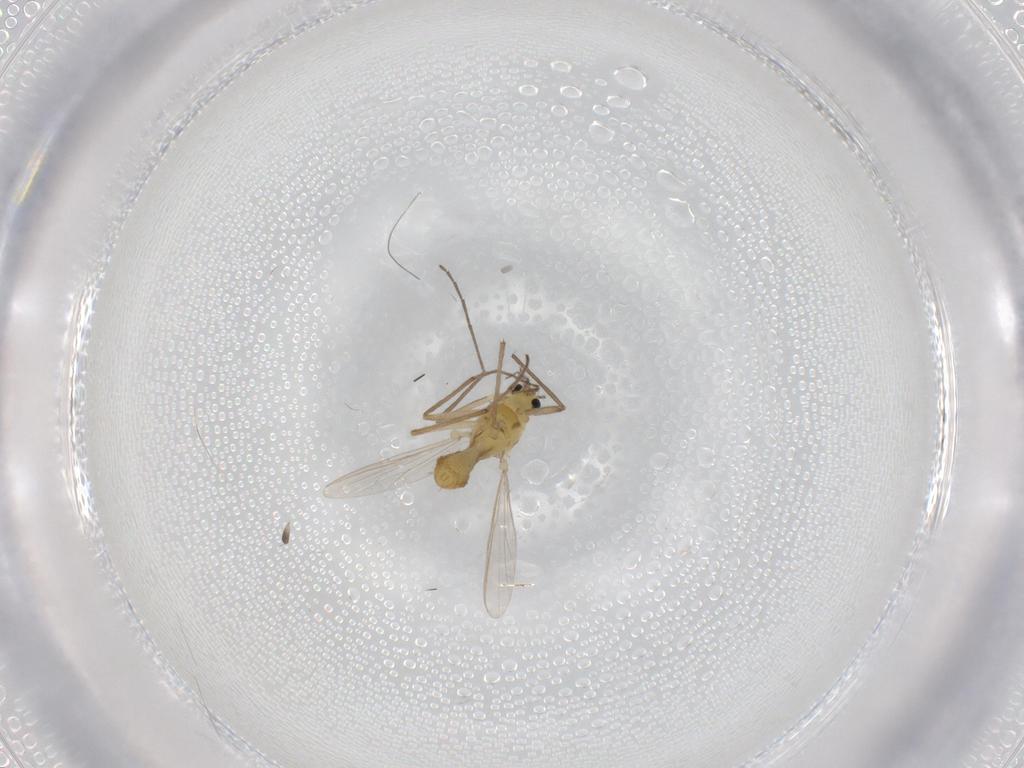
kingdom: Animalia
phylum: Arthropoda
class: Insecta
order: Diptera
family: Chironomidae
